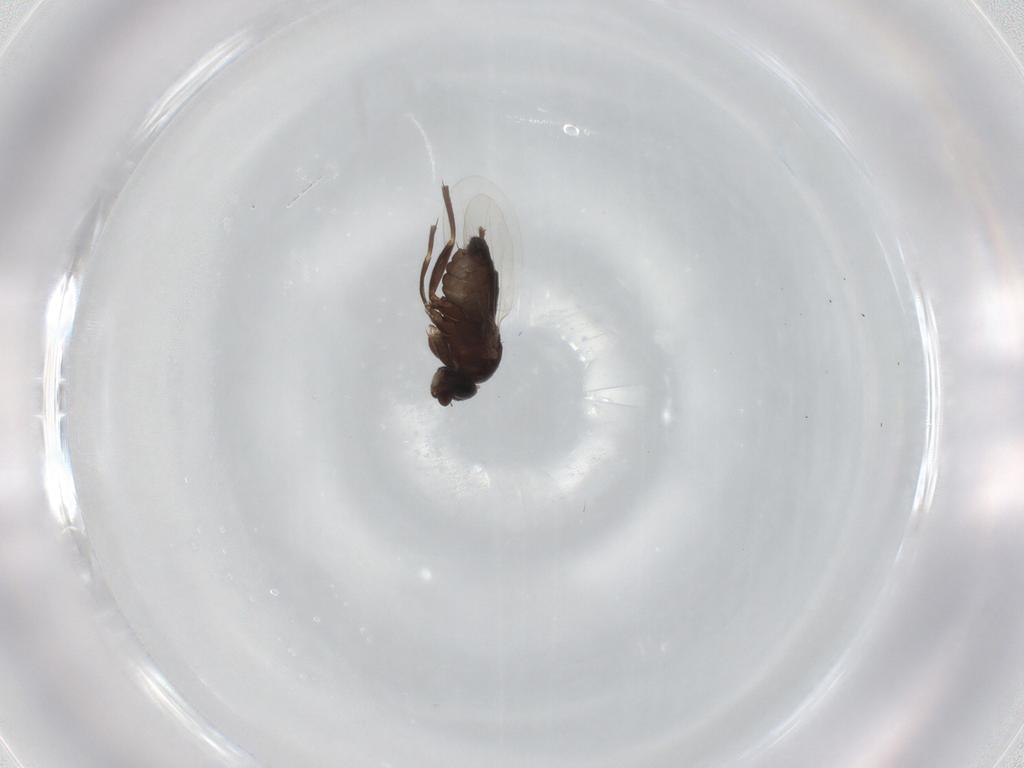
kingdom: Animalia
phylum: Arthropoda
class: Insecta
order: Diptera
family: Phoridae
